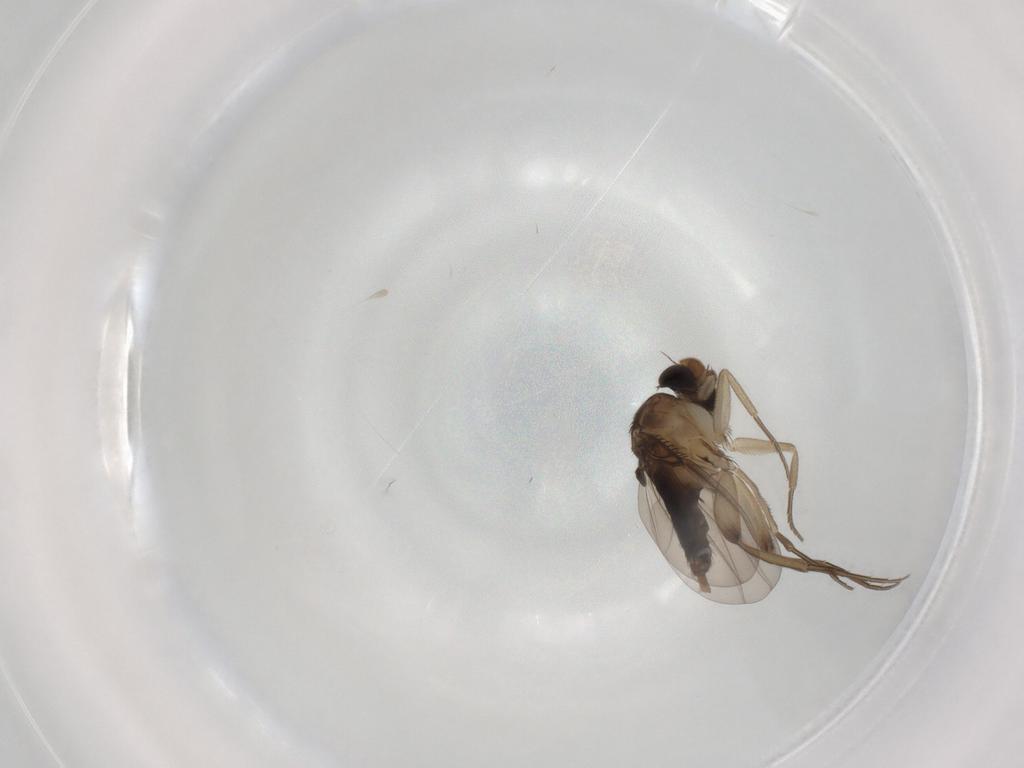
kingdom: Animalia
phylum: Arthropoda
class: Insecta
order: Diptera
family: Phoridae
